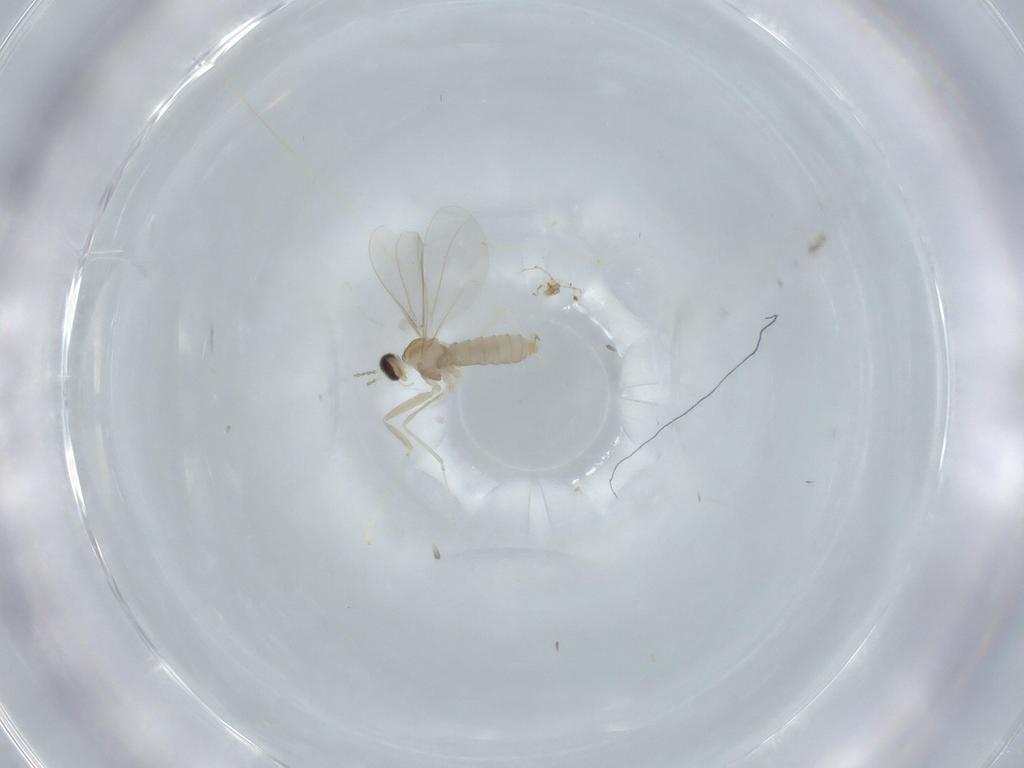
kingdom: Animalia
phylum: Arthropoda
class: Insecta
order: Diptera
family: Cecidomyiidae
